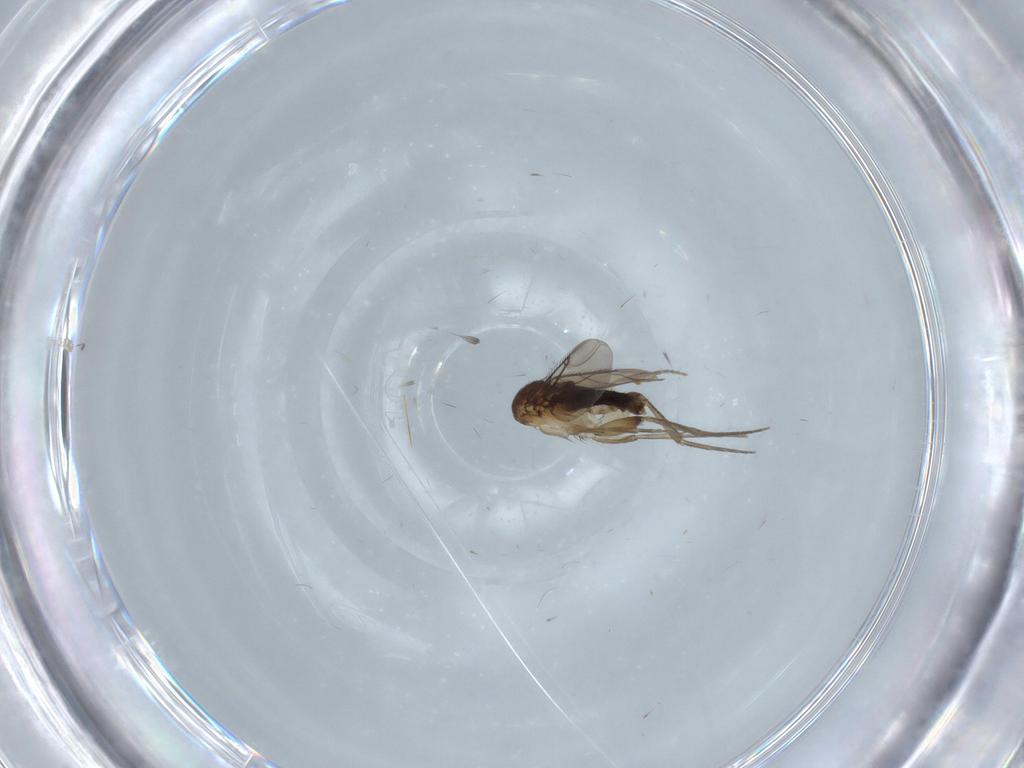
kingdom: Animalia
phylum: Arthropoda
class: Insecta
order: Diptera
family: Phoridae
